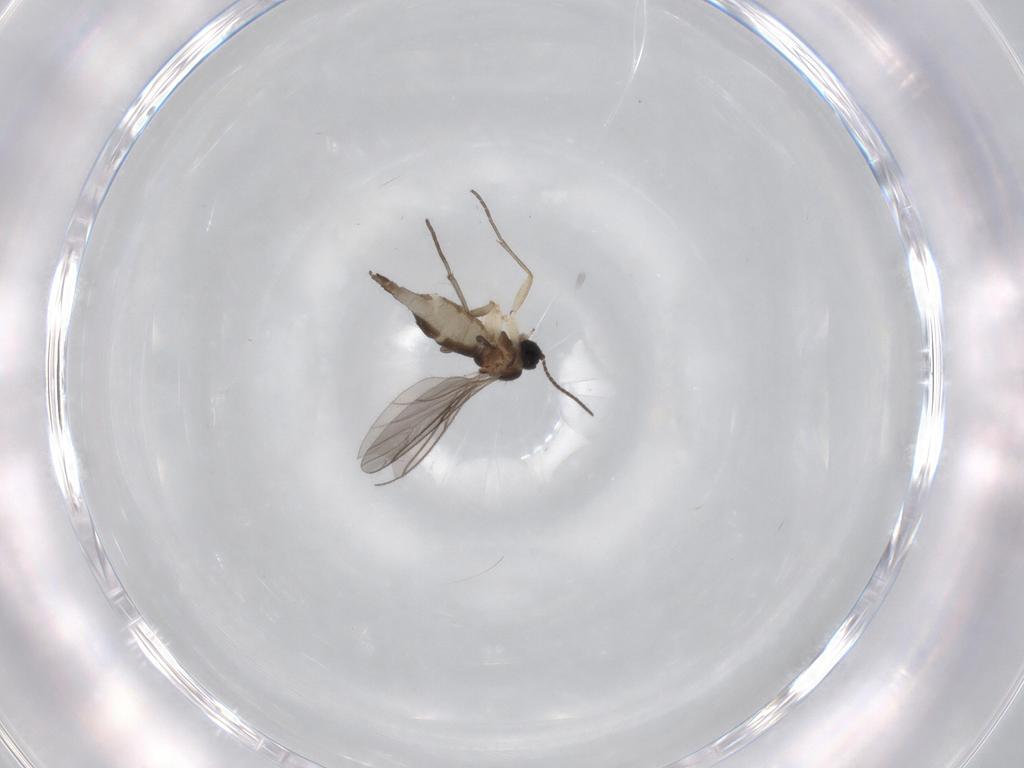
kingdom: Animalia
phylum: Arthropoda
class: Insecta
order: Diptera
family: Sciaridae
